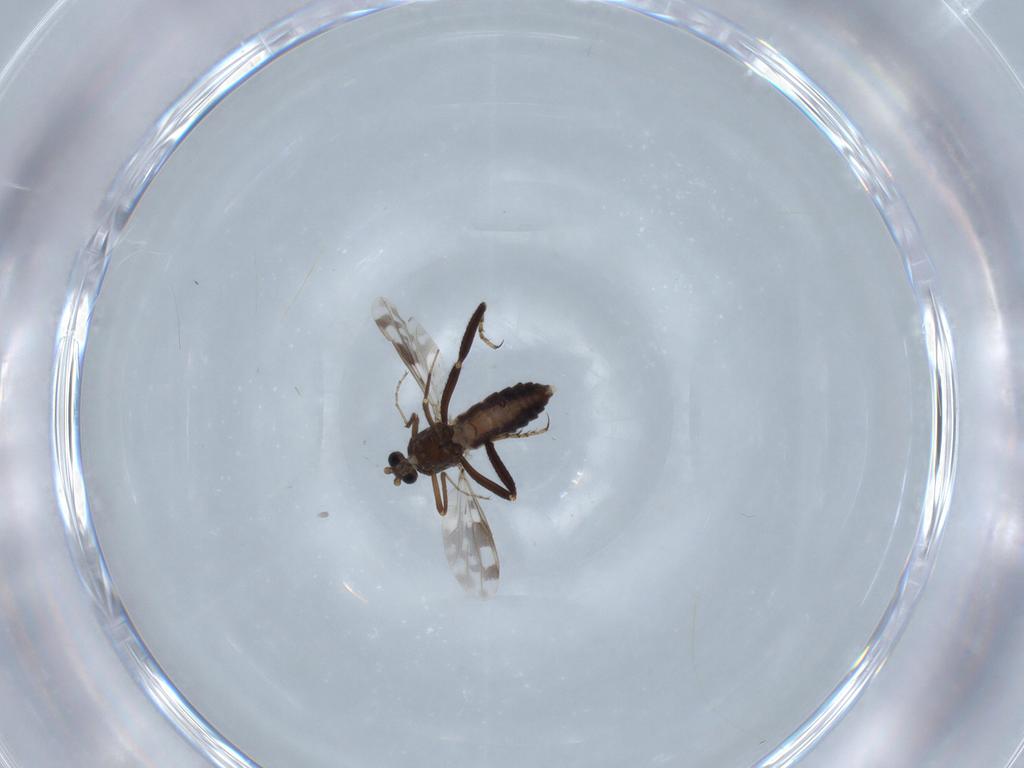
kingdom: Animalia
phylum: Arthropoda
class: Insecta
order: Diptera
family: Ceratopogonidae
